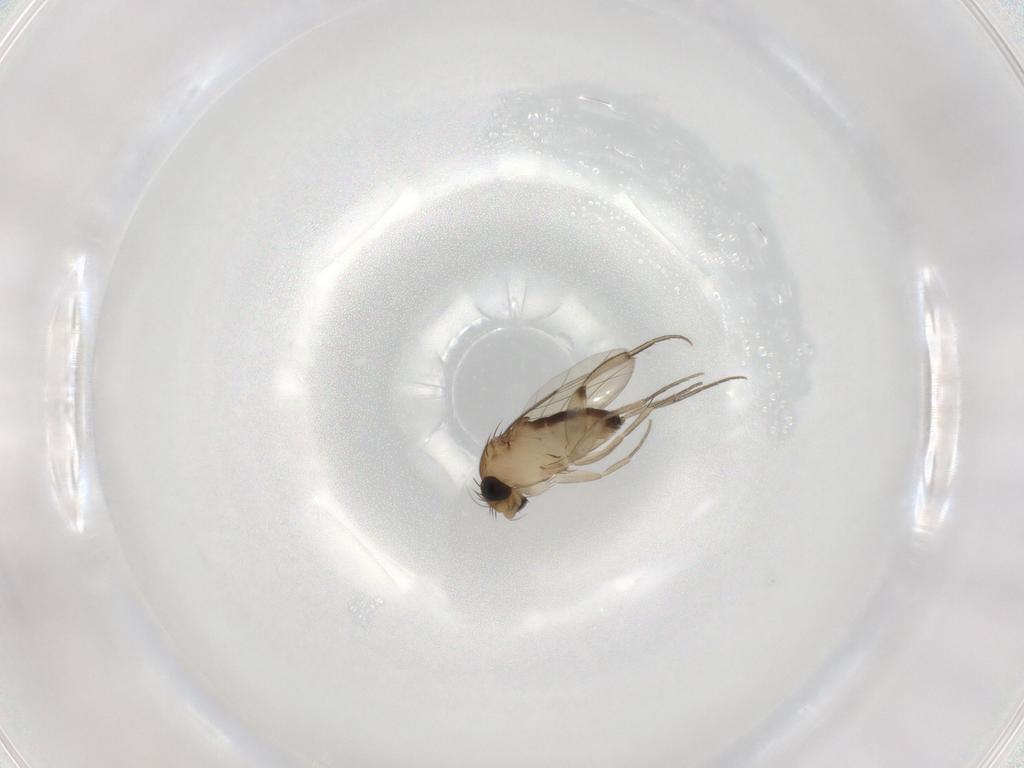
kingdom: Animalia
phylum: Arthropoda
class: Insecta
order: Diptera
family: Phoridae
